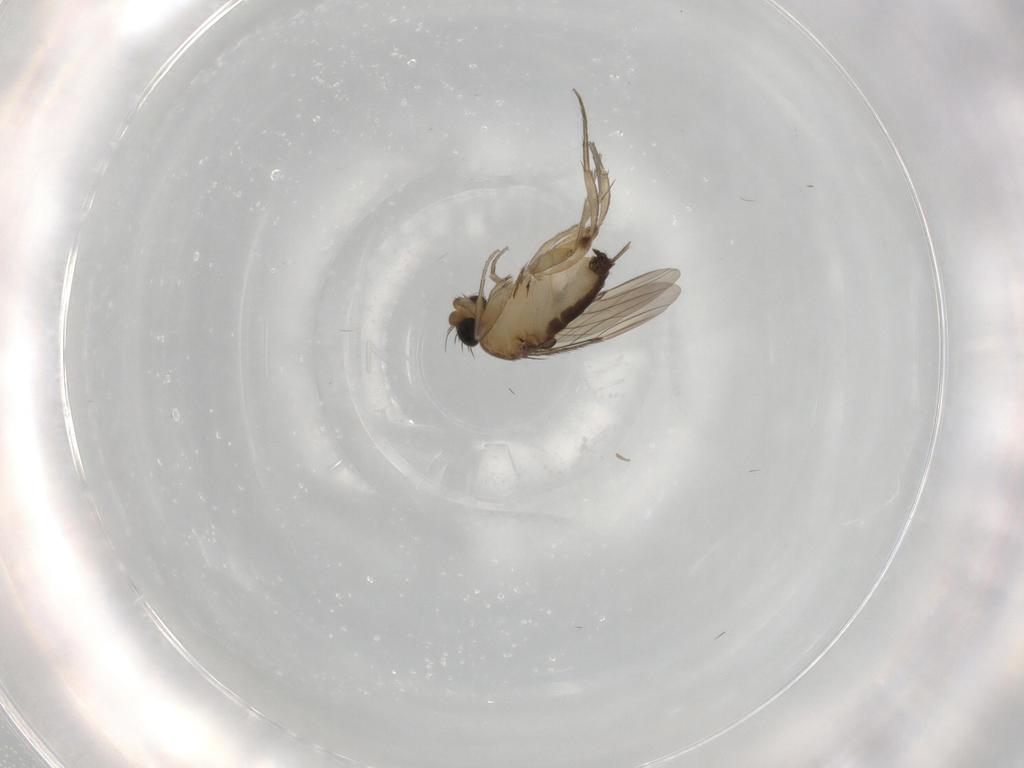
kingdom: Animalia
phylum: Arthropoda
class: Insecta
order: Diptera
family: Phoridae
